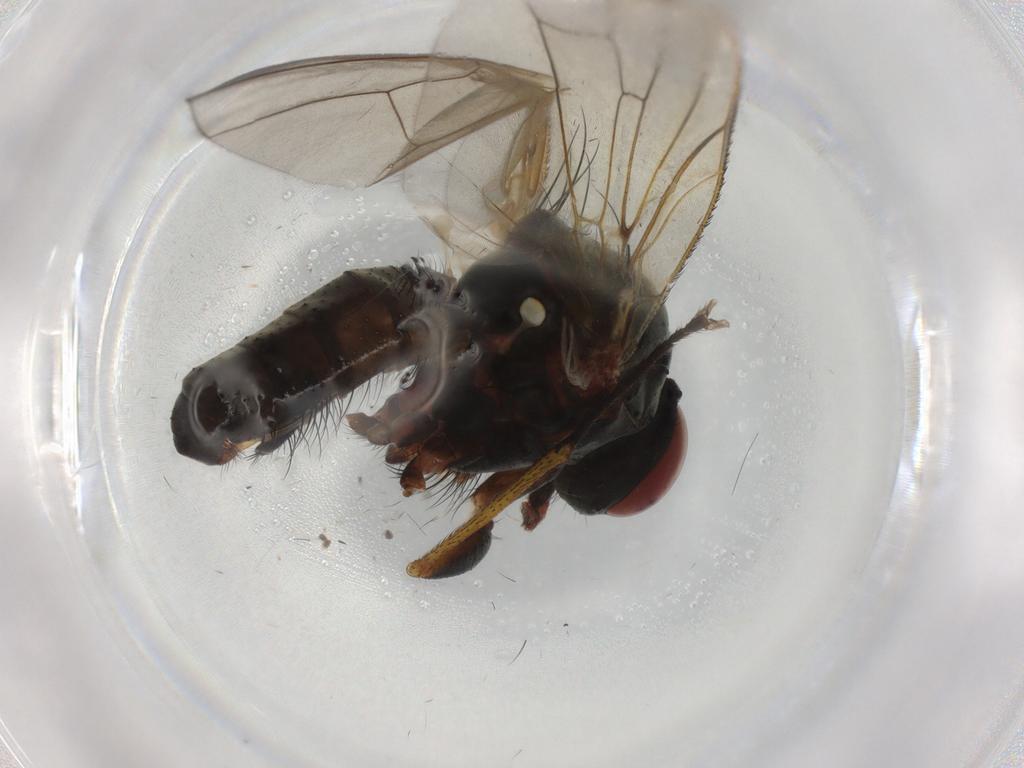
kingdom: Animalia
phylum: Arthropoda
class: Insecta
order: Diptera
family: Anthomyiidae
